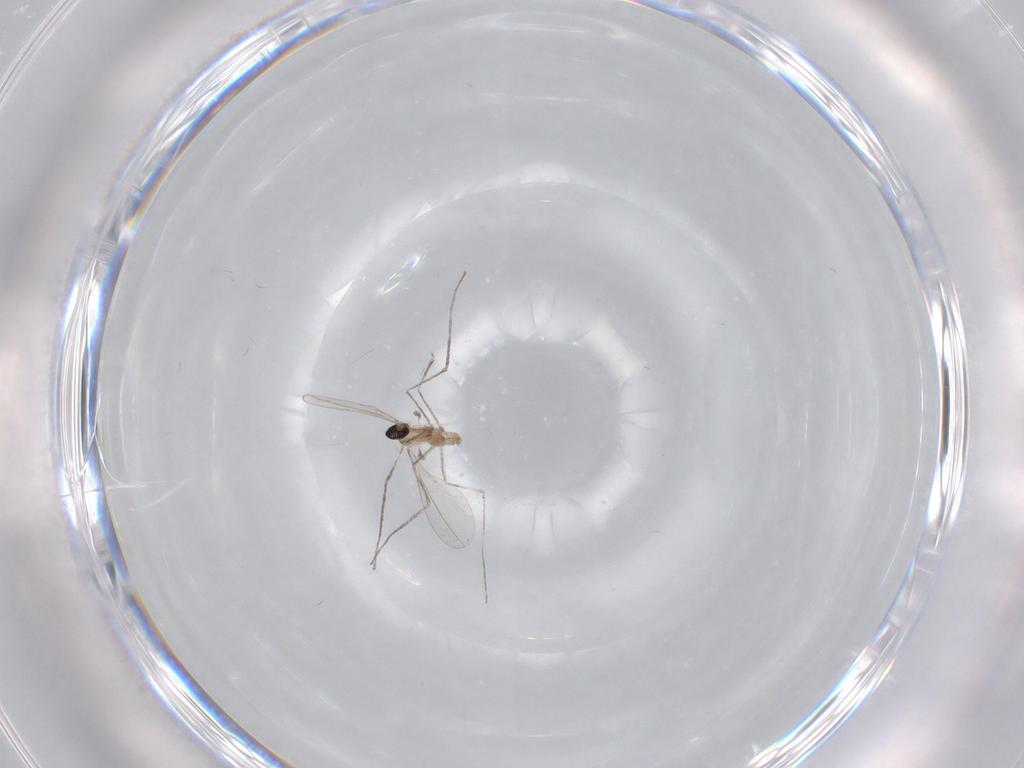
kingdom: Animalia
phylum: Arthropoda
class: Insecta
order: Diptera
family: Cecidomyiidae
